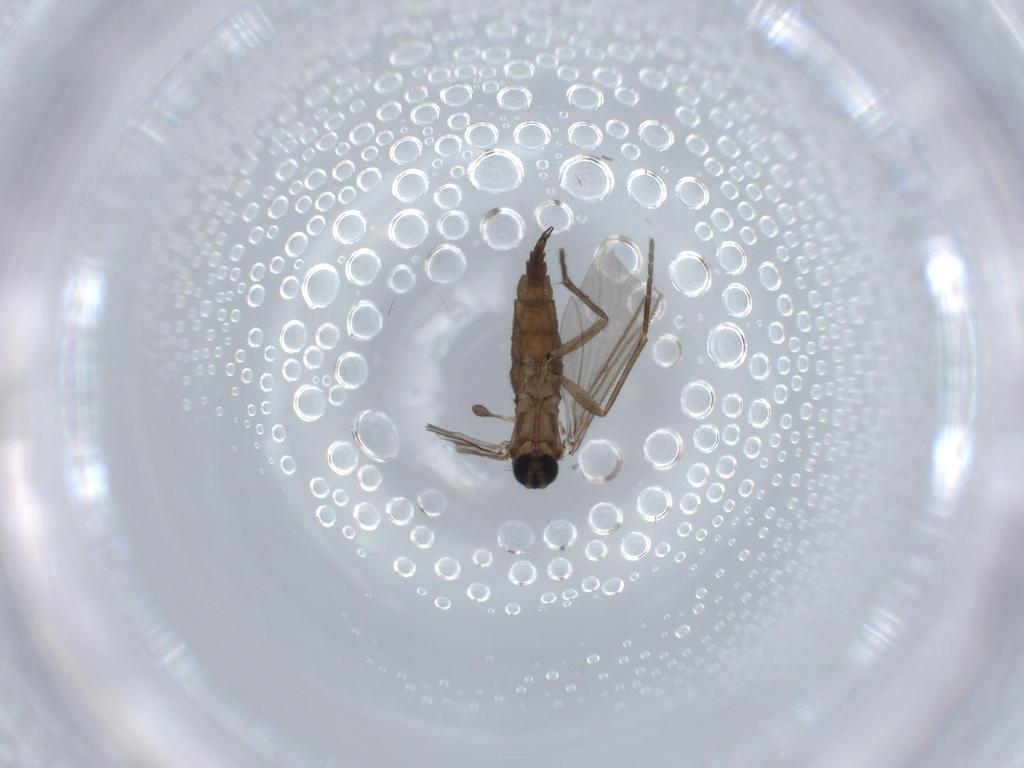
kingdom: Animalia
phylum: Arthropoda
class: Insecta
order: Diptera
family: Sciaridae
